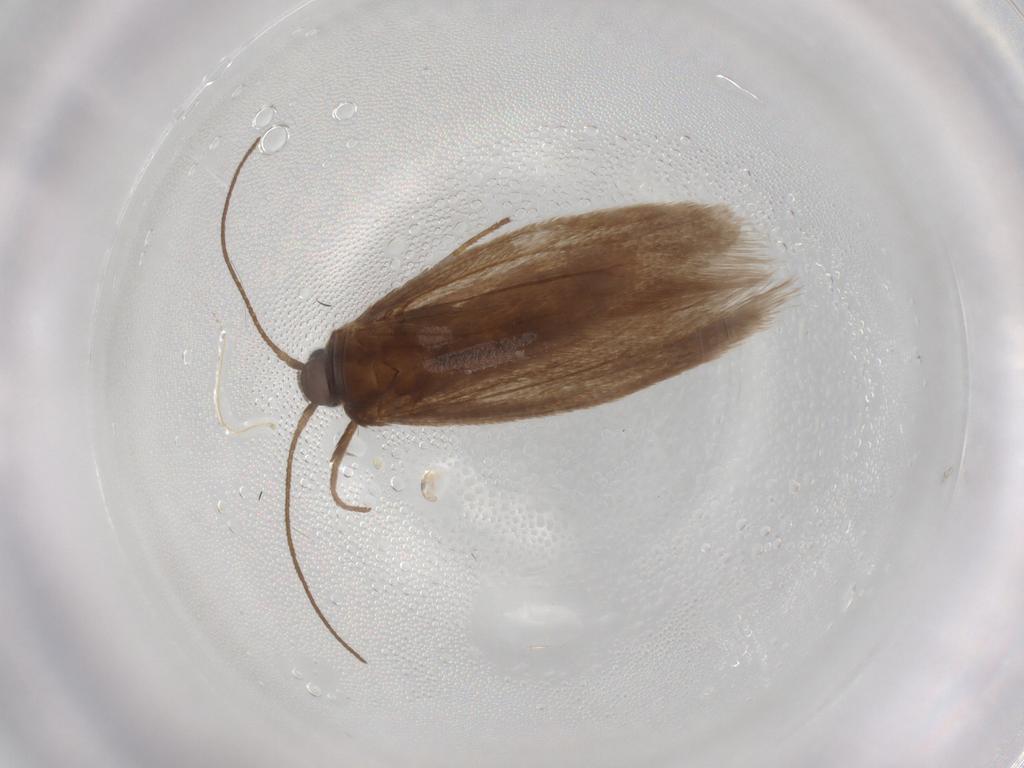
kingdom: Animalia
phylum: Arthropoda
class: Insecta
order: Lepidoptera
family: Limacodidae
